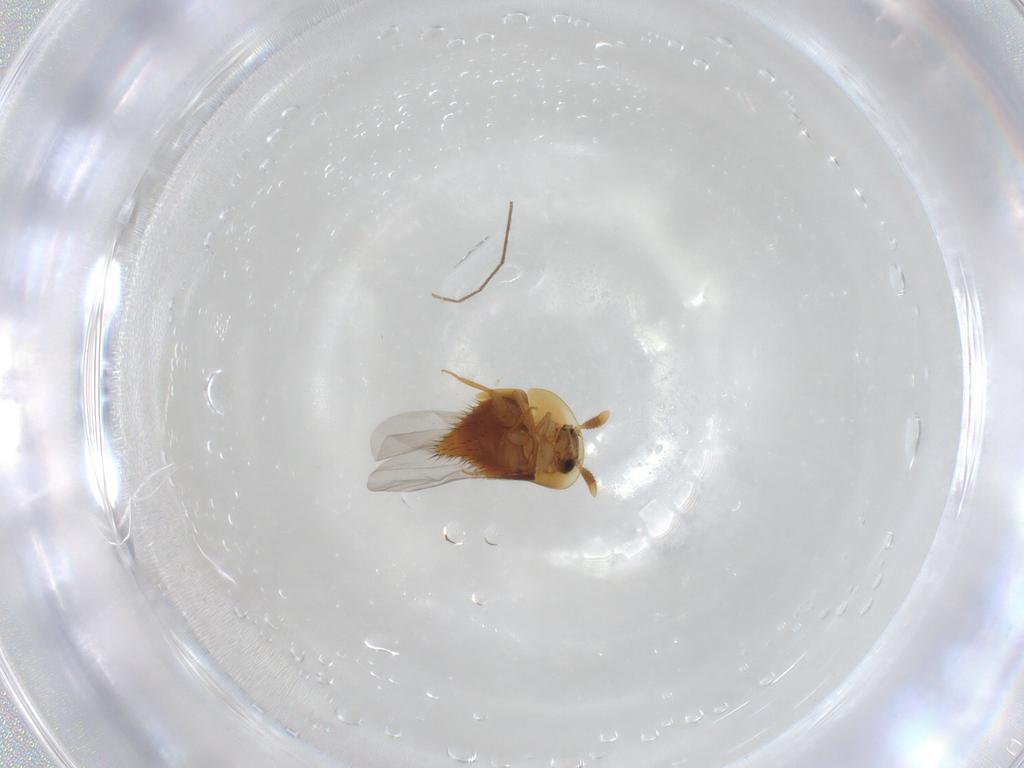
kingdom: Animalia
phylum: Arthropoda
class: Insecta
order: Diptera
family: Chironomidae
